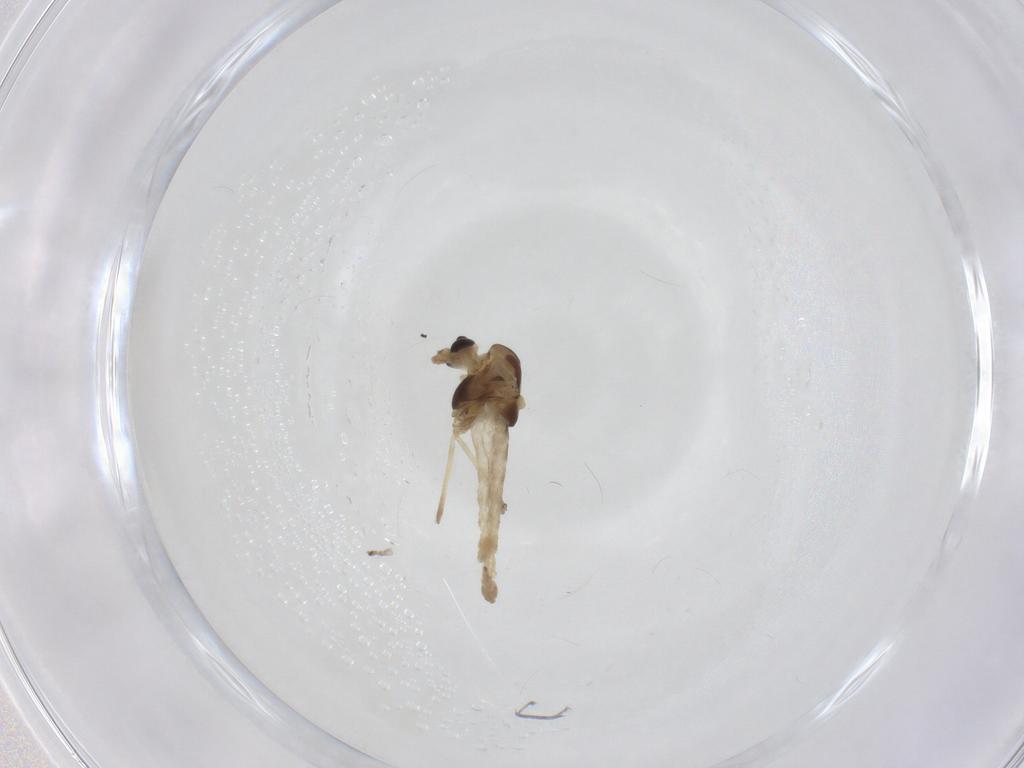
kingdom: Animalia
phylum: Arthropoda
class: Insecta
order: Diptera
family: Chironomidae
